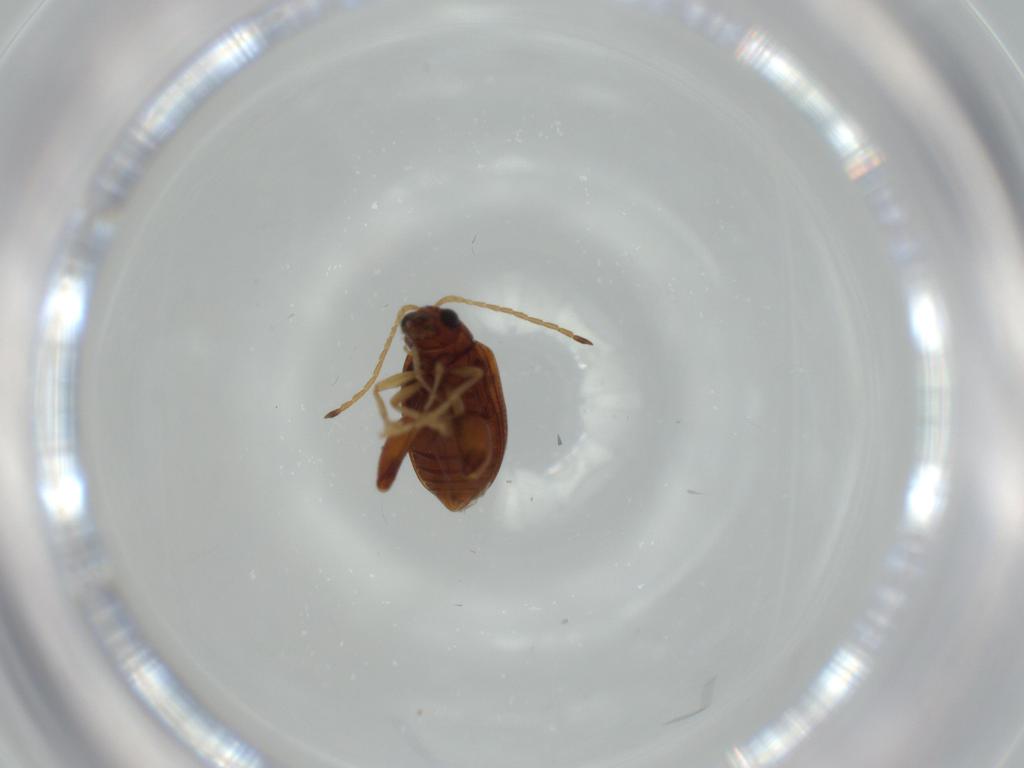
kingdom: Animalia
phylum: Arthropoda
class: Insecta
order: Coleoptera
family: Chrysomelidae
